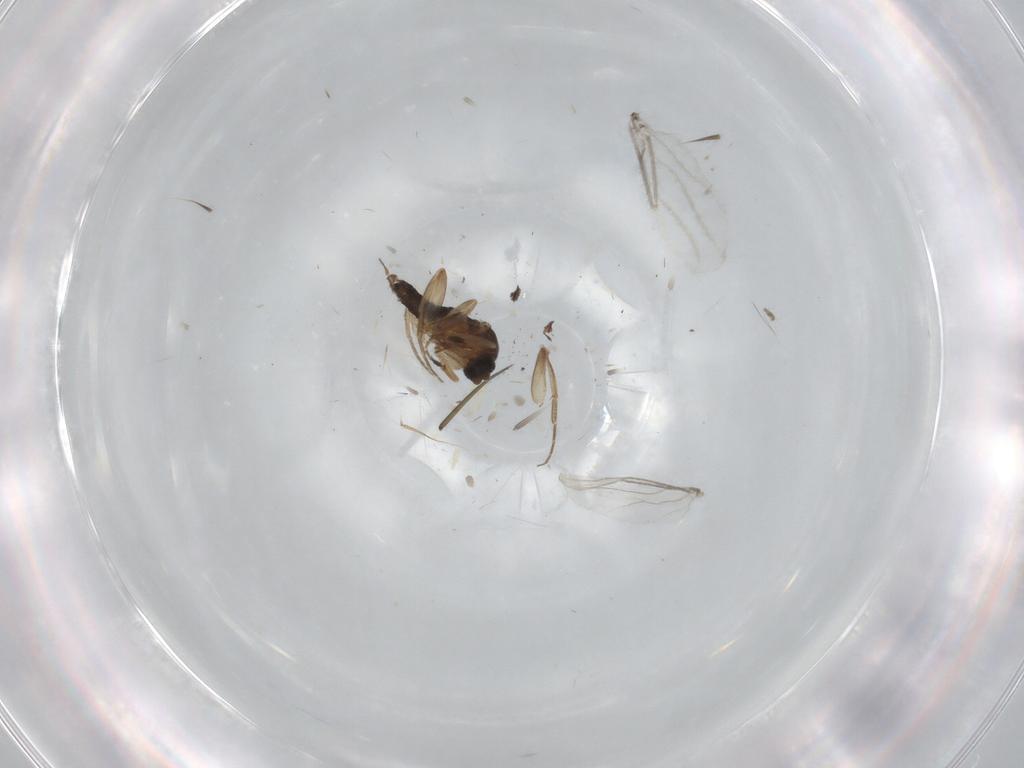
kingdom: Animalia
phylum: Arthropoda
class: Insecta
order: Diptera
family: Phoridae
